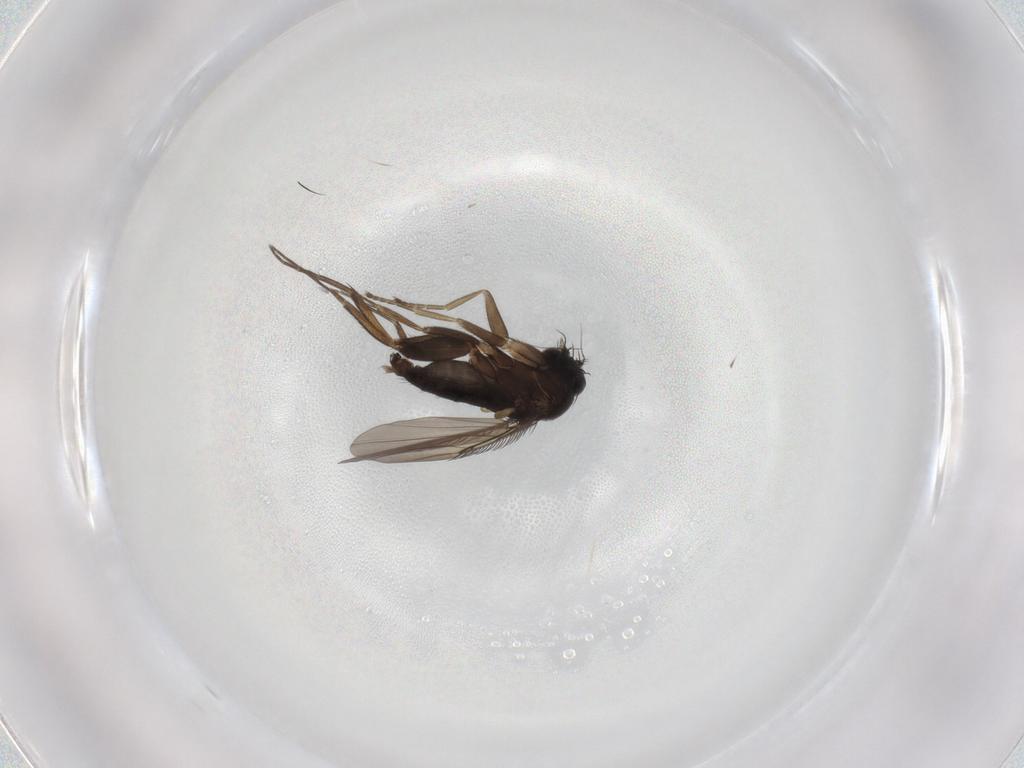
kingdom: Animalia
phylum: Arthropoda
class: Insecta
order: Diptera
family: Phoridae
